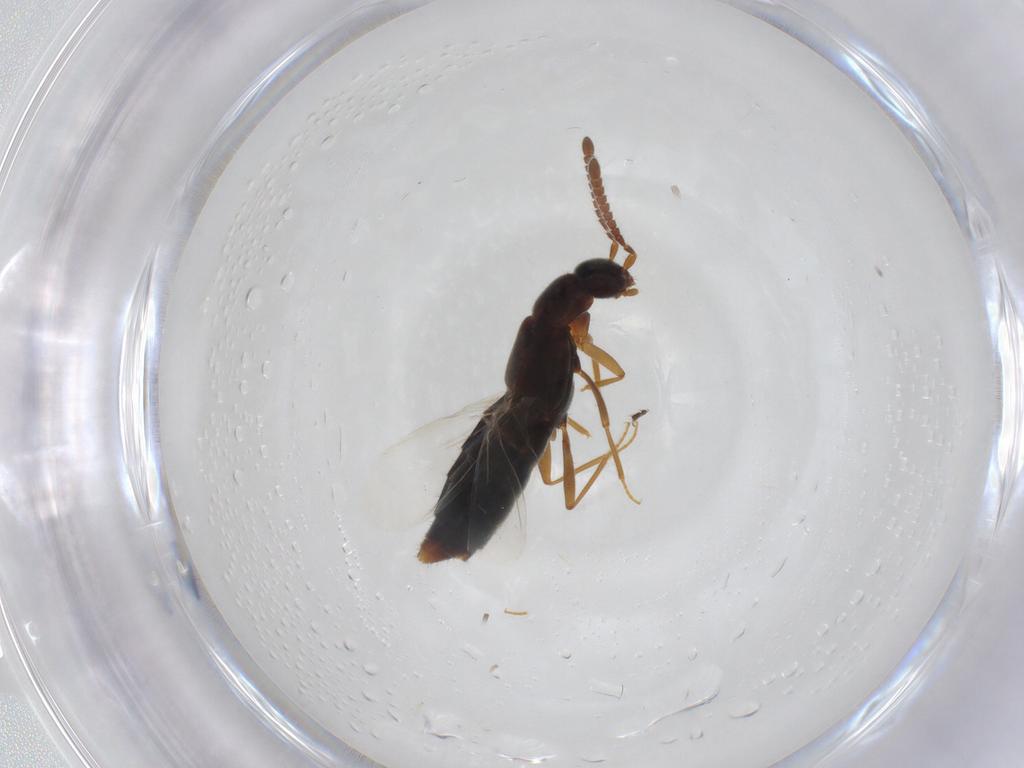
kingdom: Animalia
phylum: Arthropoda
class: Insecta
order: Coleoptera
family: Staphylinidae
